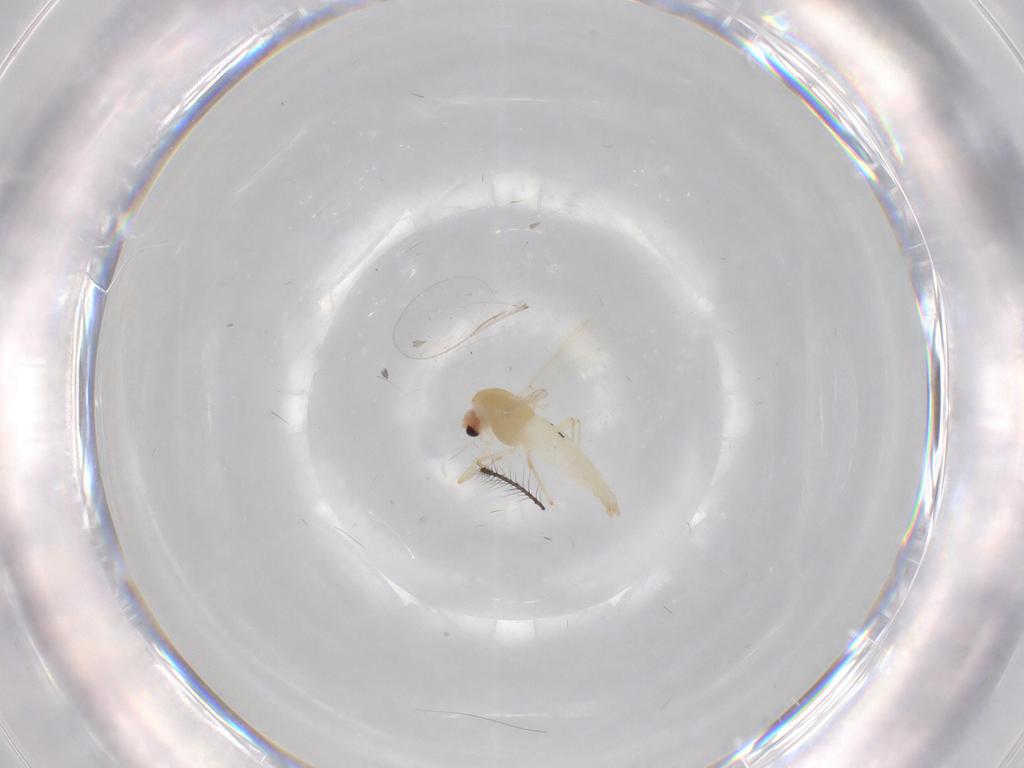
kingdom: Animalia
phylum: Arthropoda
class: Insecta
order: Diptera
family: Chironomidae
